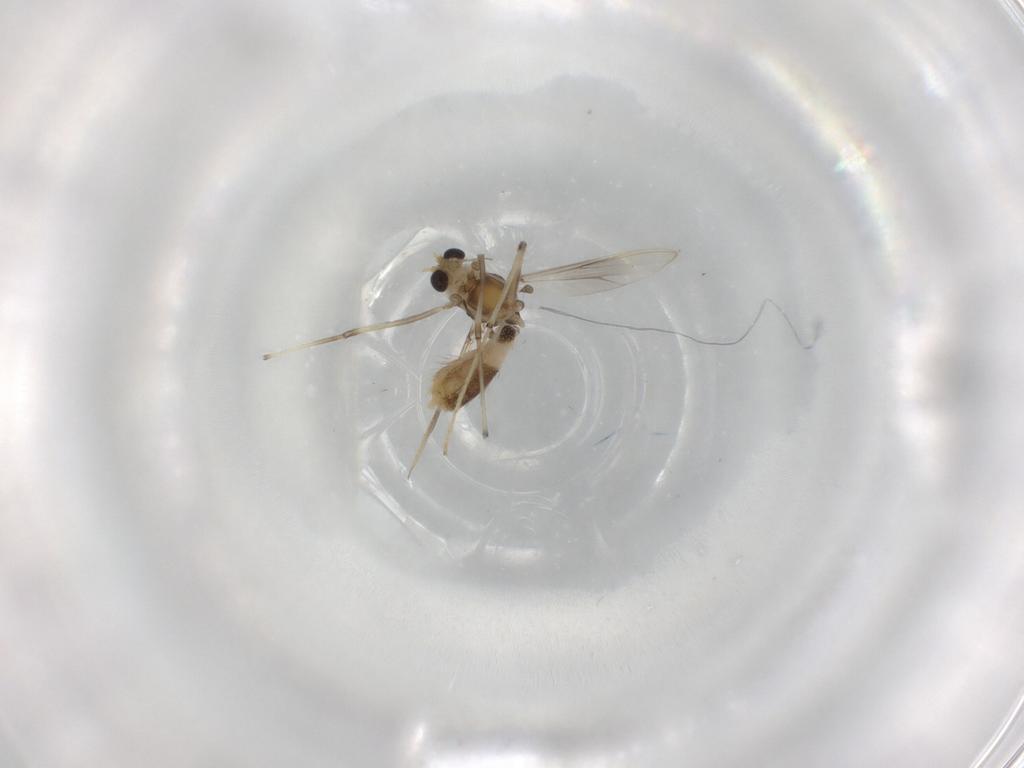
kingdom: Animalia
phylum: Arthropoda
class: Insecta
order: Diptera
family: Chironomidae
